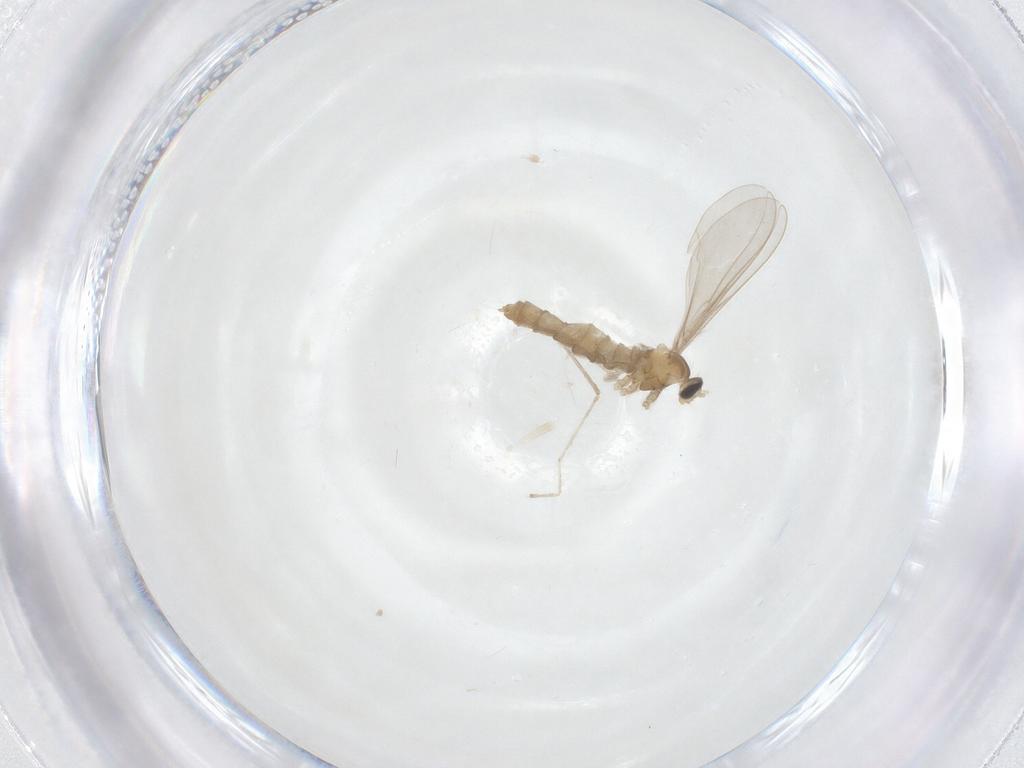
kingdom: Animalia
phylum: Arthropoda
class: Insecta
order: Diptera
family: Cecidomyiidae
